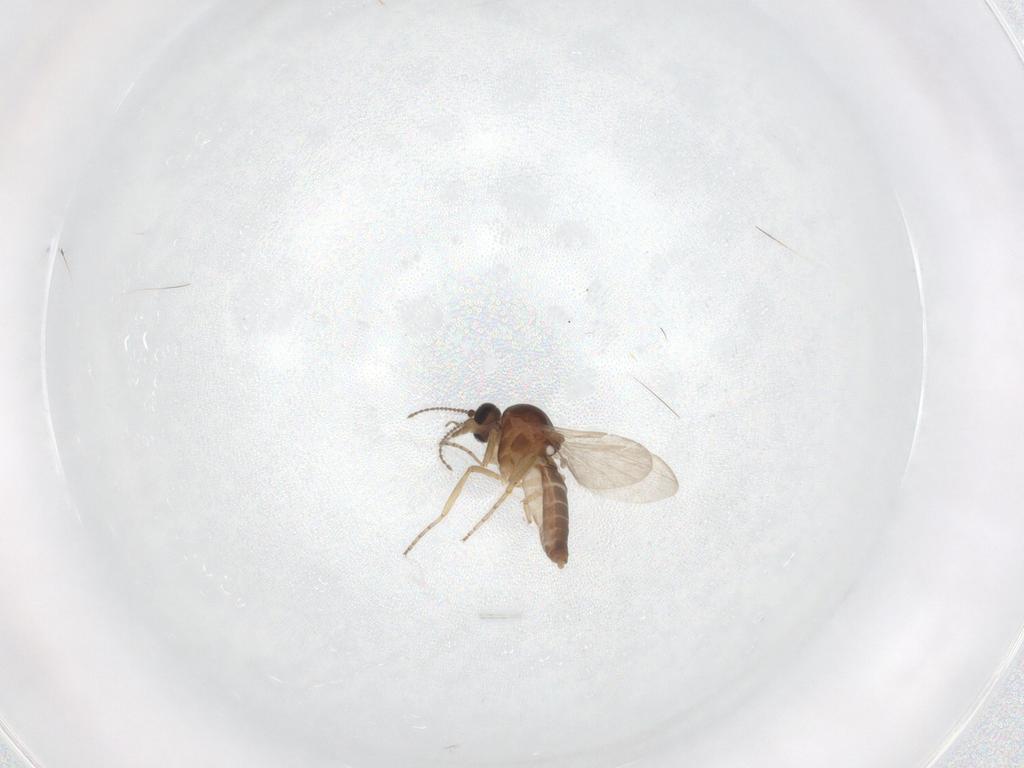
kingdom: Animalia
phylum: Arthropoda
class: Insecta
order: Diptera
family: Ceratopogonidae
